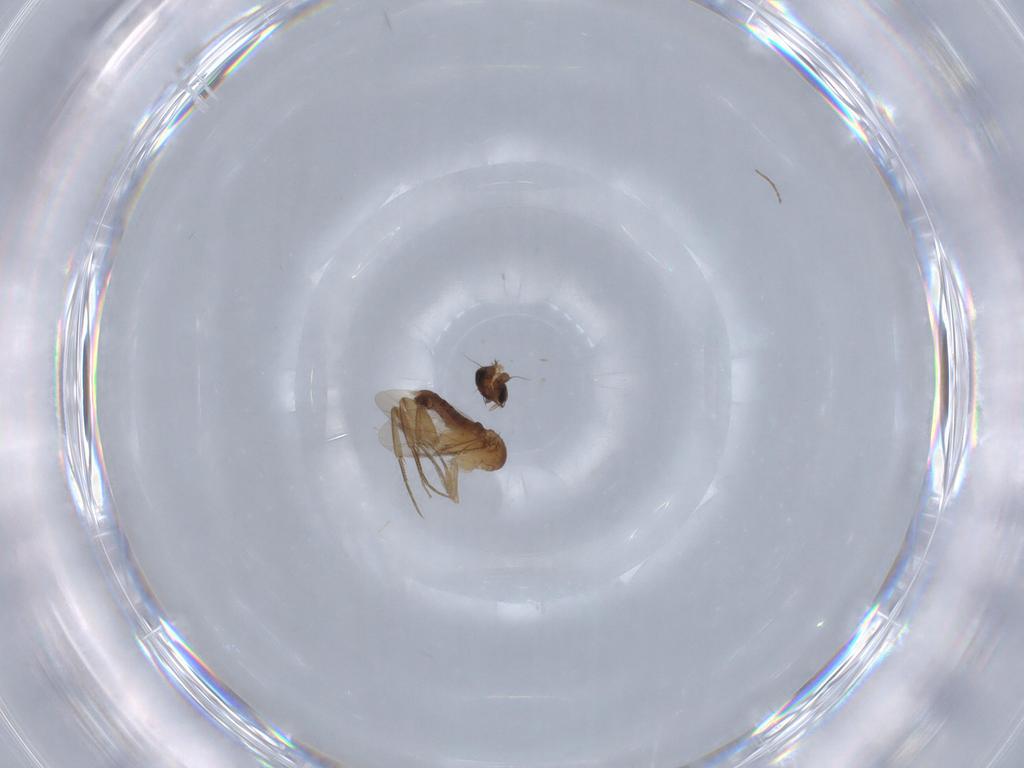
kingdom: Animalia
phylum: Arthropoda
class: Insecta
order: Diptera
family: Phoridae
